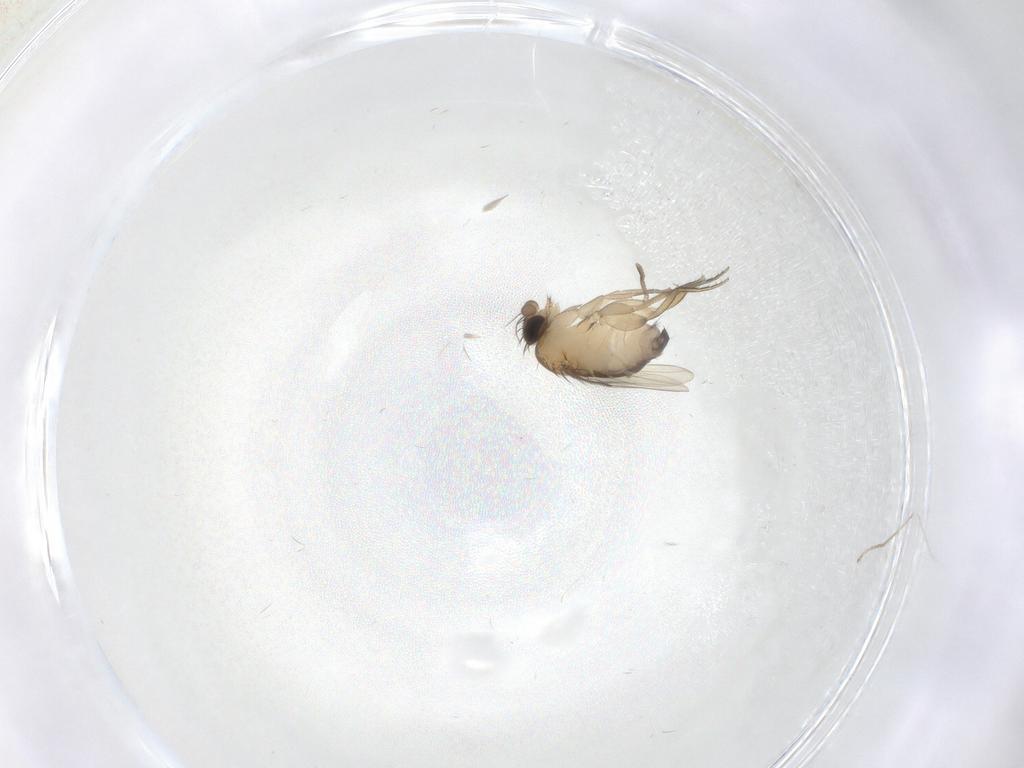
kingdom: Animalia
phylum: Arthropoda
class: Insecta
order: Diptera
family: Phoridae
